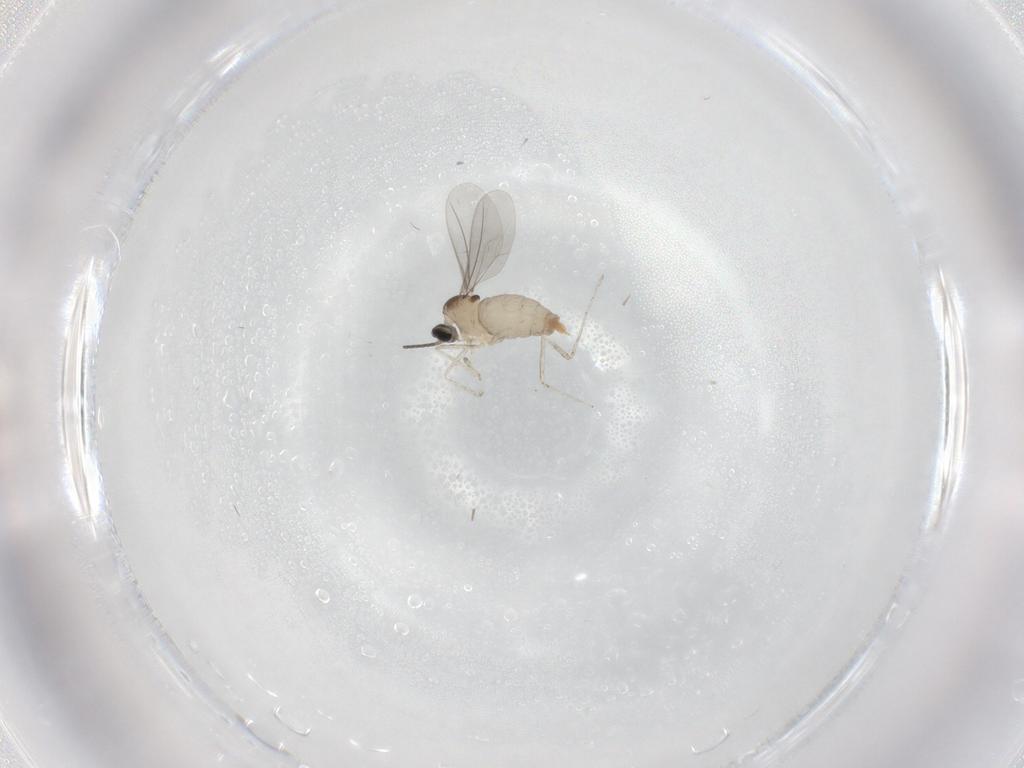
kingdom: Animalia
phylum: Arthropoda
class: Insecta
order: Diptera
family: Cecidomyiidae
